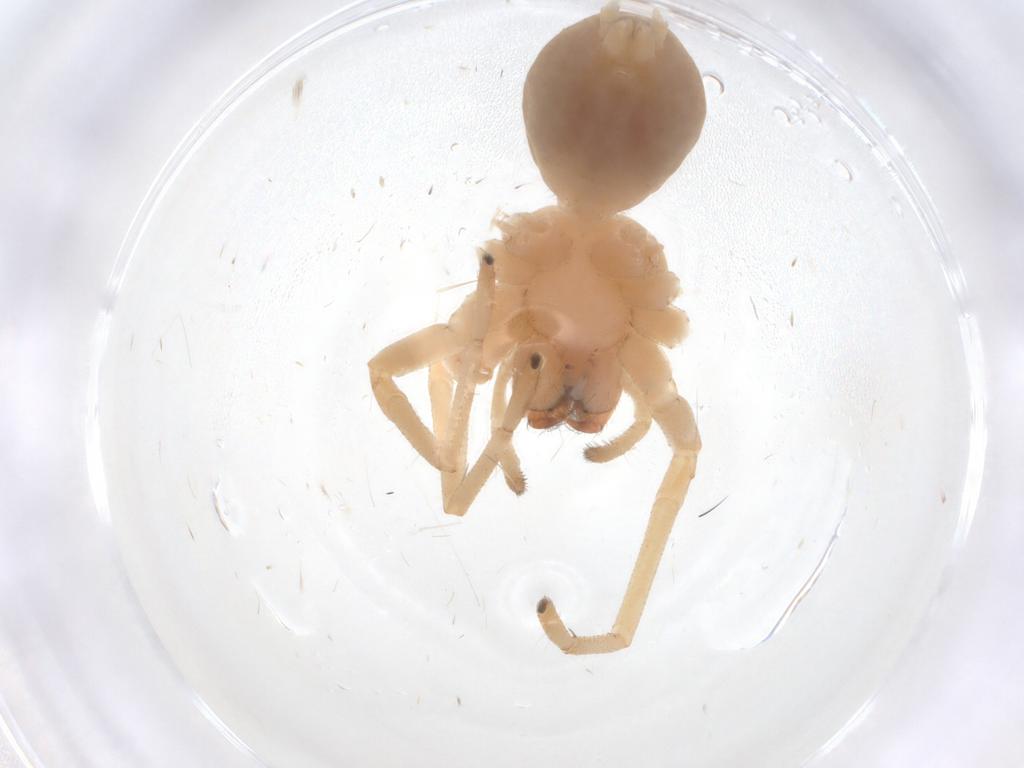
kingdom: Animalia
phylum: Arthropoda
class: Arachnida
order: Araneae
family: Cheiracanthiidae
